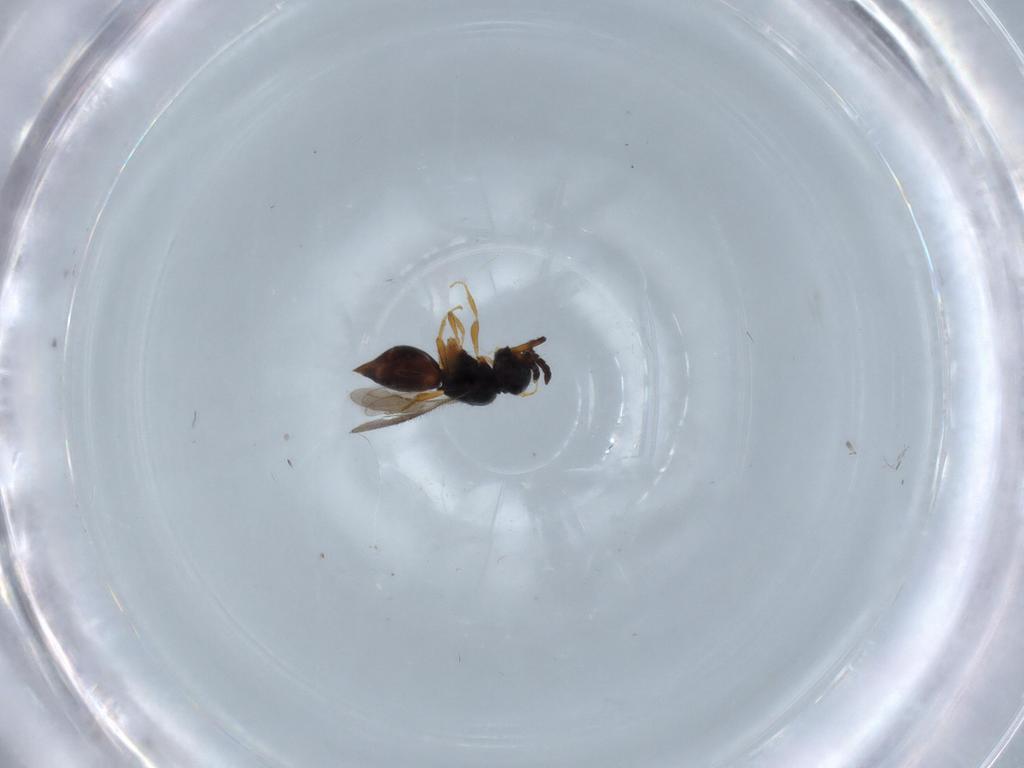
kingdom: Animalia
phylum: Arthropoda
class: Insecta
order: Hymenoptera
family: Ceraphronidae
